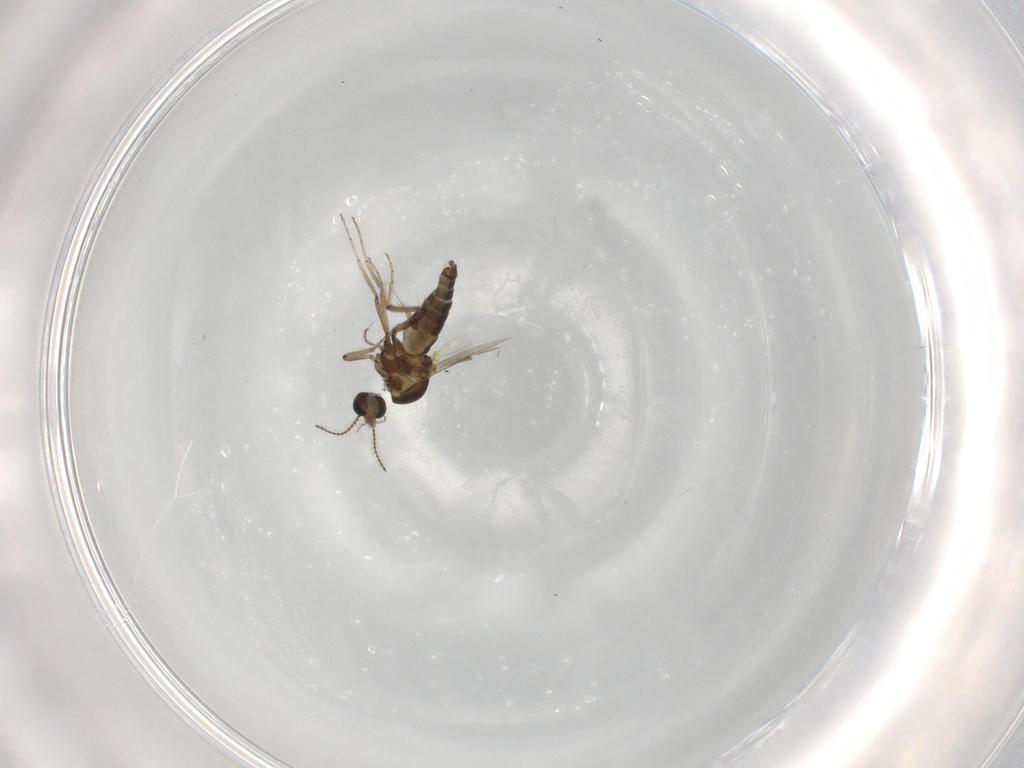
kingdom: Animalia
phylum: Arthropoda
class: Insecta
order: Diptera
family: Ceratopogonidae
